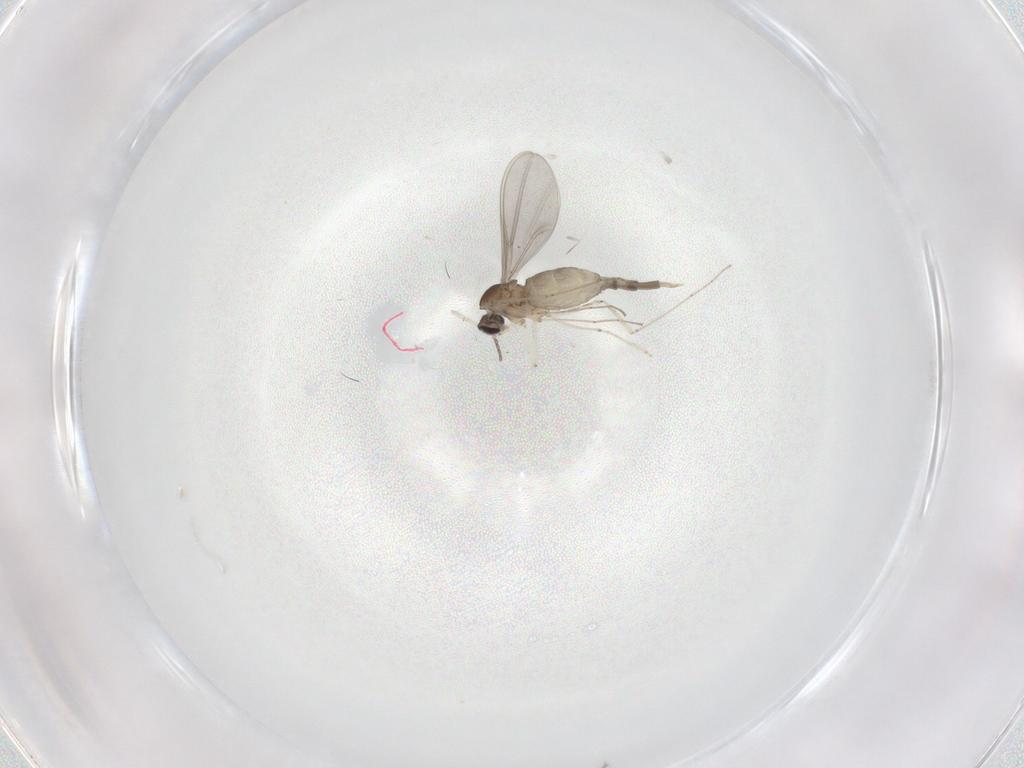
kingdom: Animalia
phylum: Arthropoda
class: Insecta
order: Diptera
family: Cecidomyiidae
